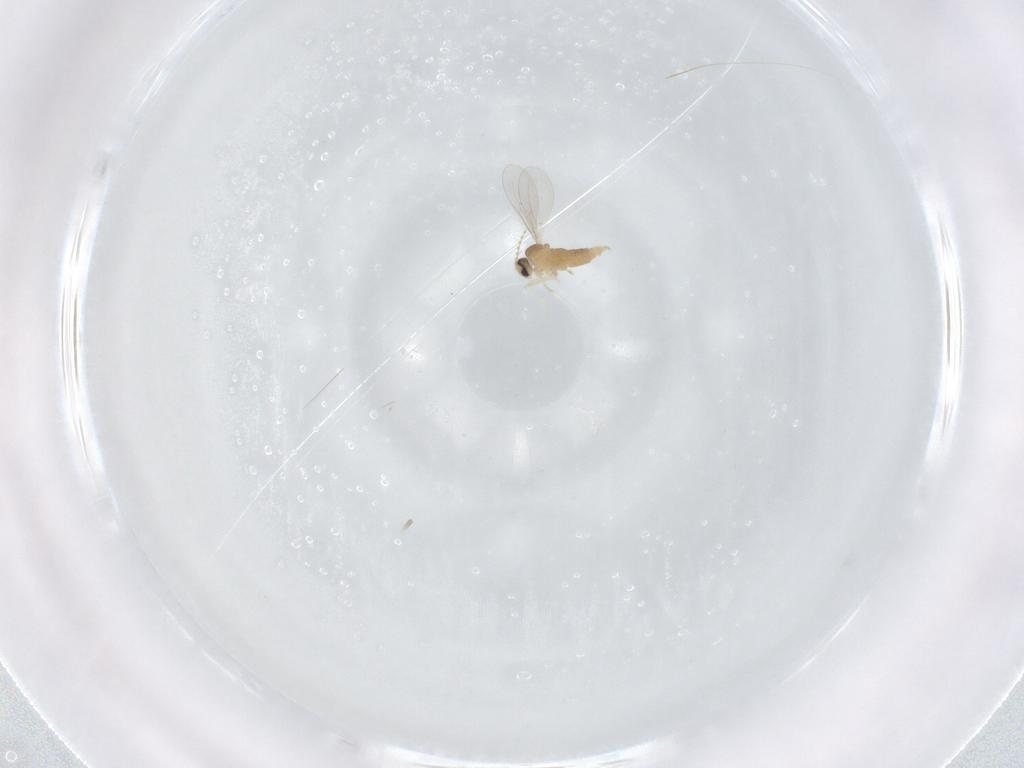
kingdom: Animalia
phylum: Arthropoda
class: Insecta
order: Diptera
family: Cecidomyiidae
